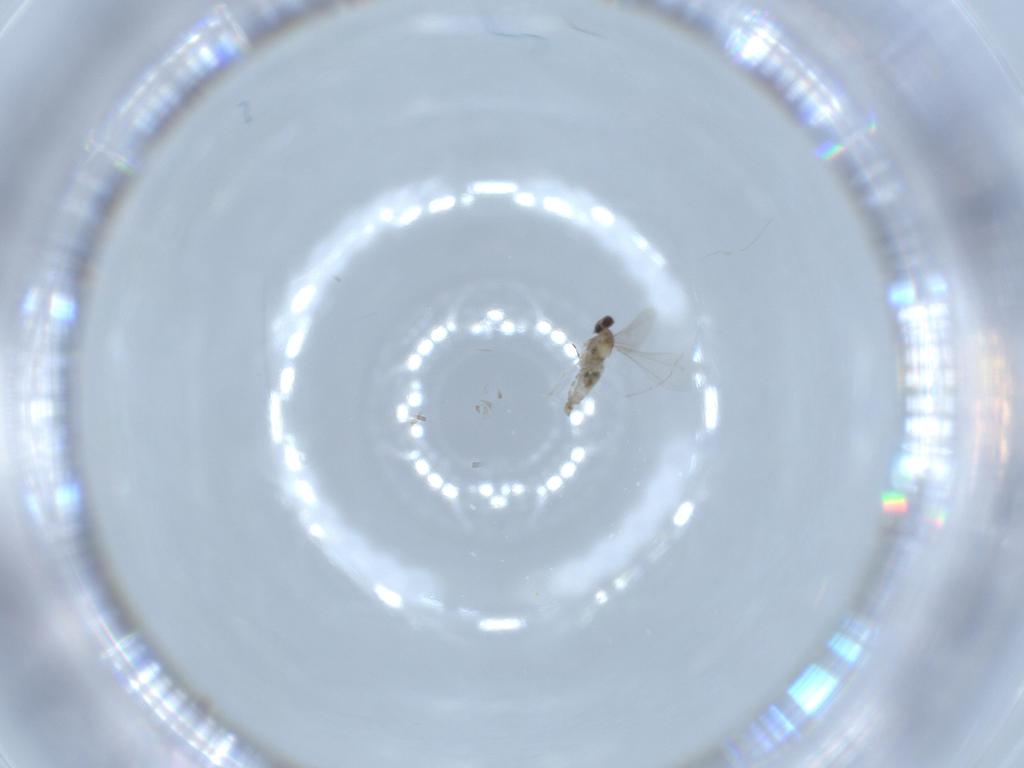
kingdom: Animalia
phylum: Arthropoda
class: Insecta
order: Diptera
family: Cecidomyiidae
